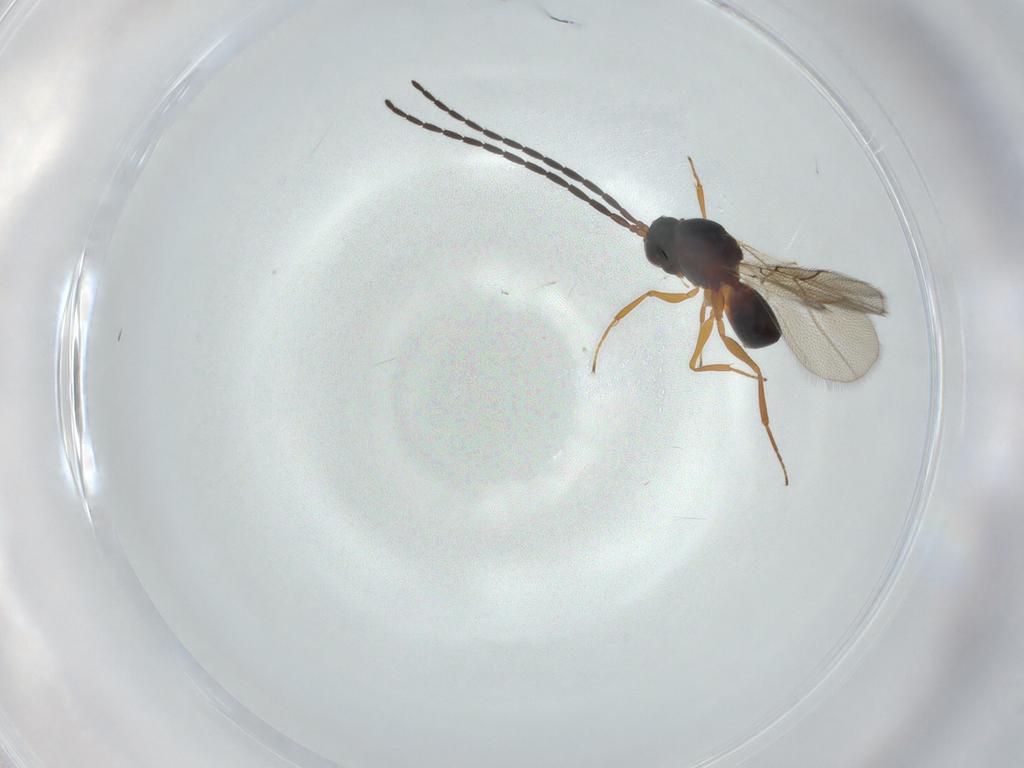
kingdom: Animalia
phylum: Arthropoda
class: Insecta
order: Hymenoptera
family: Figitidae
